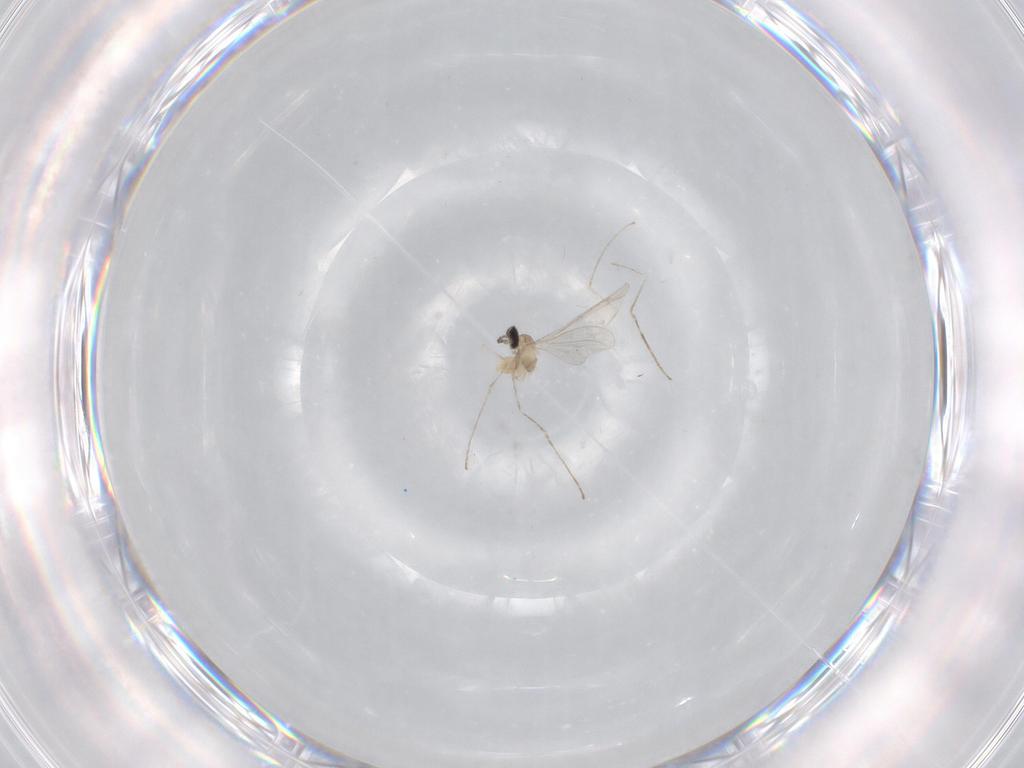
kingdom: Animalia
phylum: Arthropoda
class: Insecta
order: Diptera
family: Cecidomyiidae
